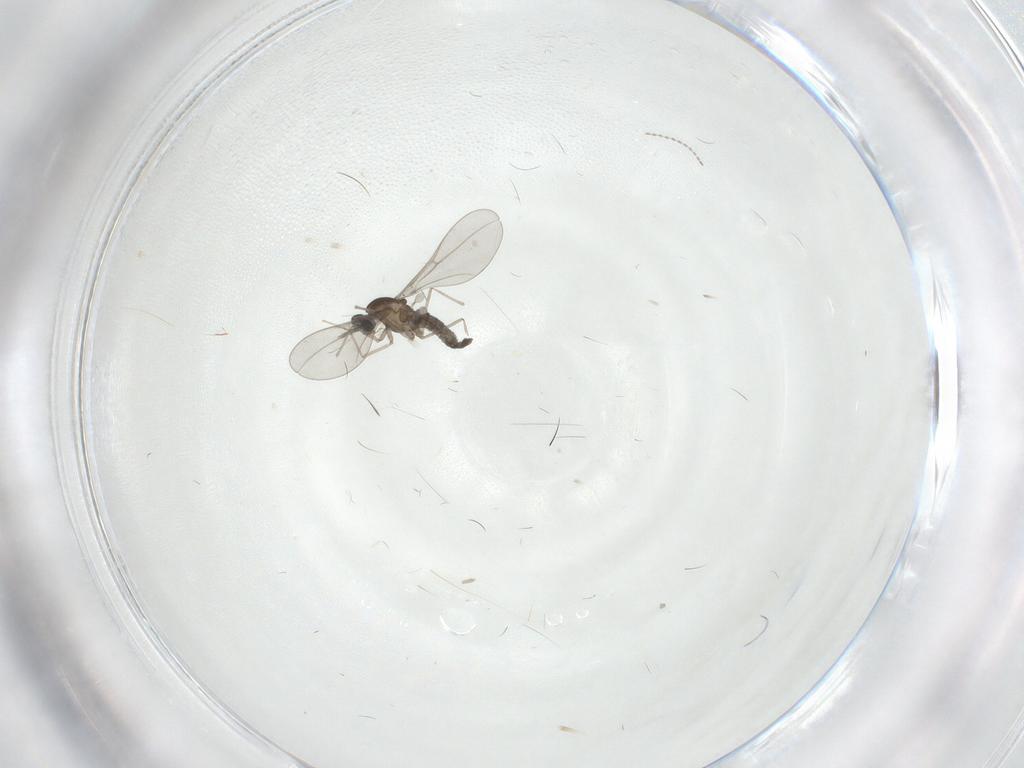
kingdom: Animalia
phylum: Arthropoda
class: Insecta
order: Diptera
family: Cecidomyiidae
